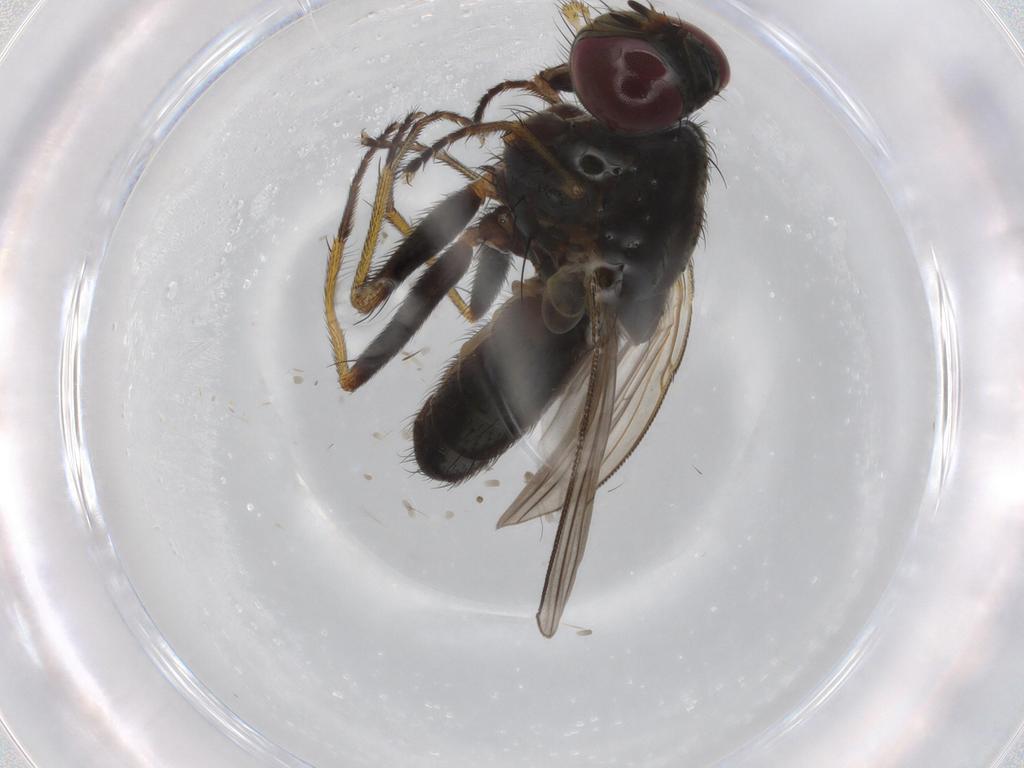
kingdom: Animalia
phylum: Arthropoda
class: Insecta
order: Diptera
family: Muscidae
